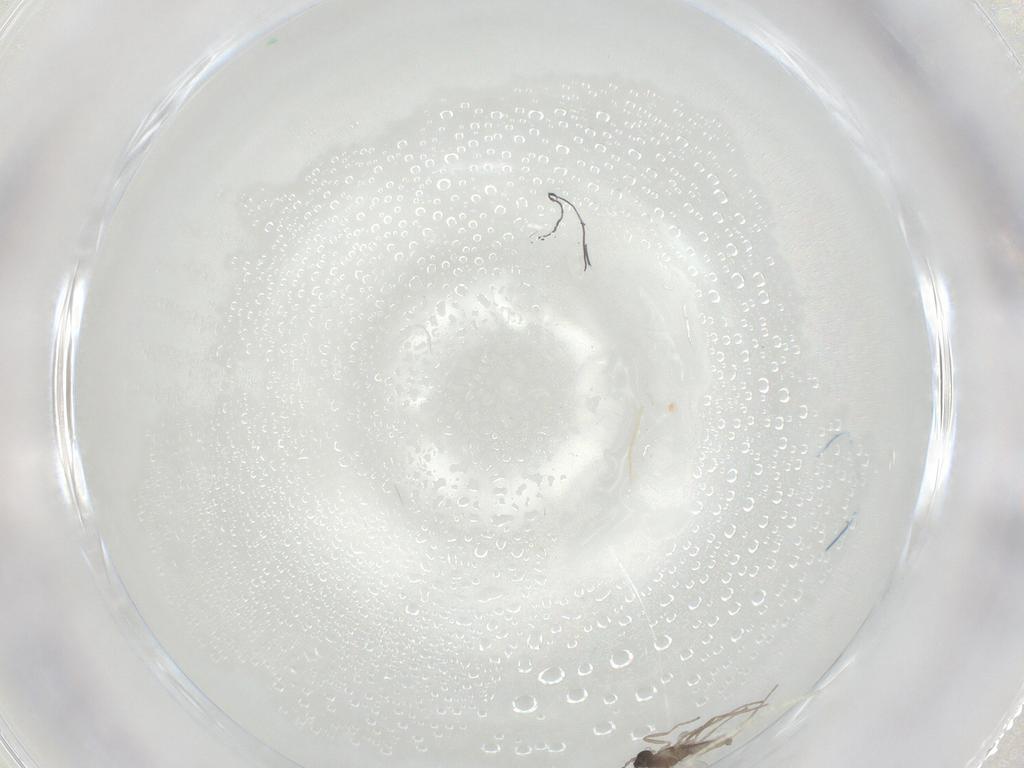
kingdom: Animalia
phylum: Arthropoda
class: Insecta
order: Diptera
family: Cecidomyiidae
